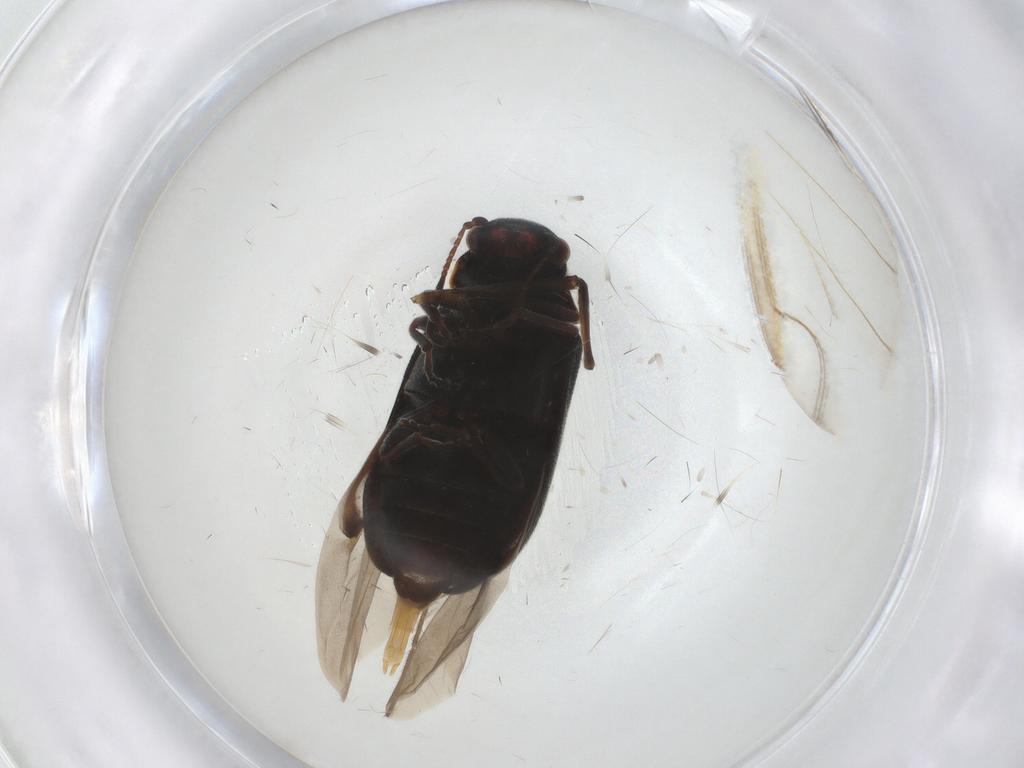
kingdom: Animalia
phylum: Arthropoda
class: Insecta
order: Coleoptera
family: Ptinidae
